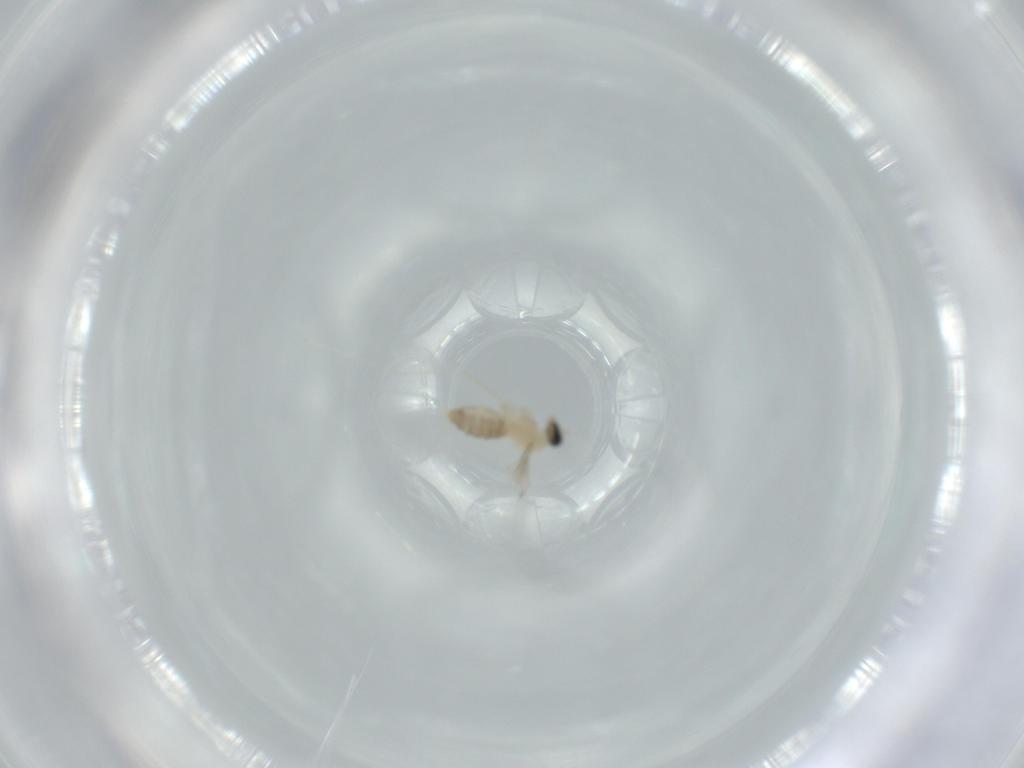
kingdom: Animalia
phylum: Arthropoda
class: Insecta
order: Diptera
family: Cecidomyiidae
